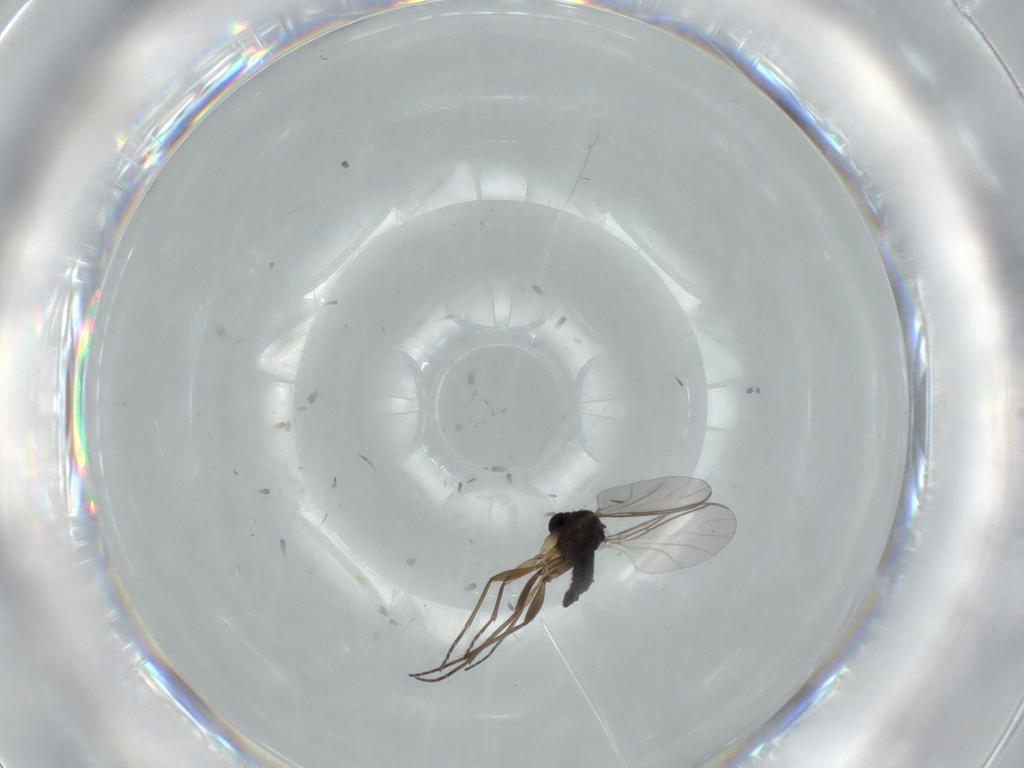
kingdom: Animalia
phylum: Arthropoda
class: Insecta
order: Diptera
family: Sciaridae
